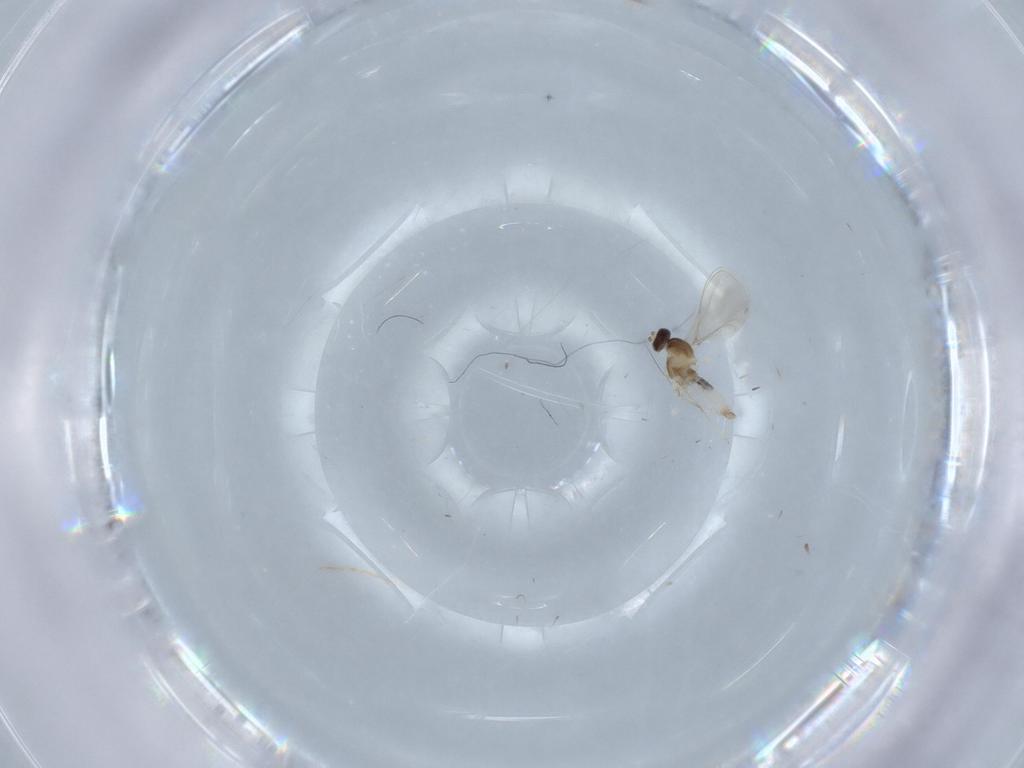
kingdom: Animalia
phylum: Arthropoda
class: Insecta
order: Diptera
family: Cecidomyiidae
